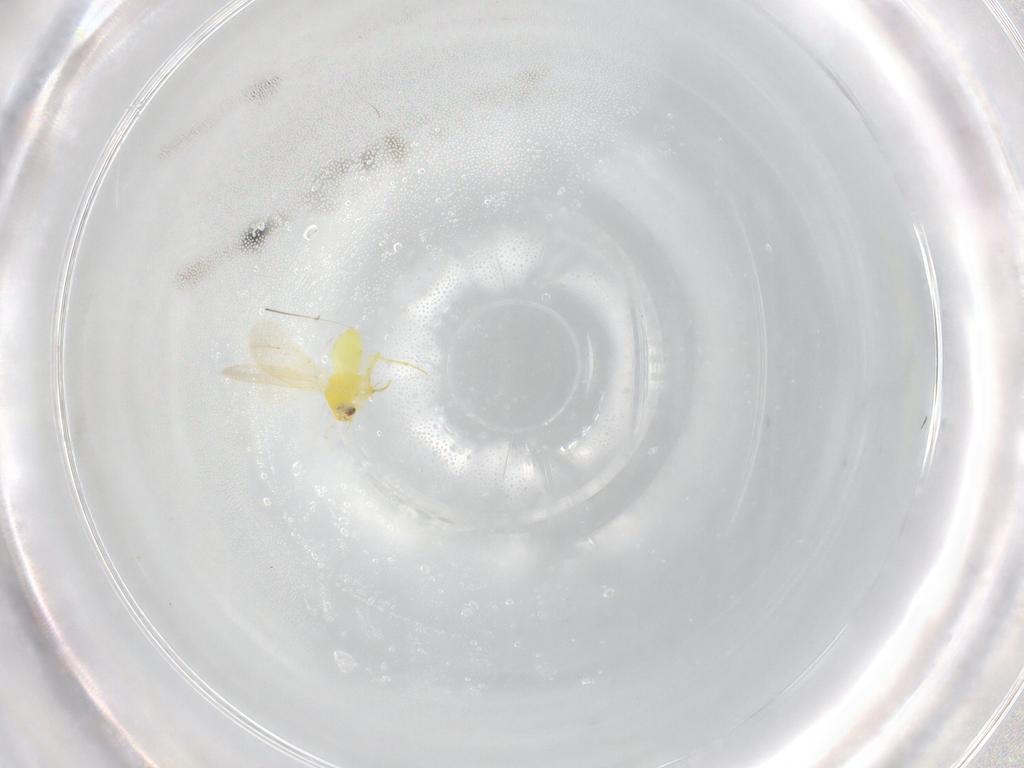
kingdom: Animalia
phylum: Arthropoda
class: Insecta
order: Hemiptera
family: Aleyrodidae
